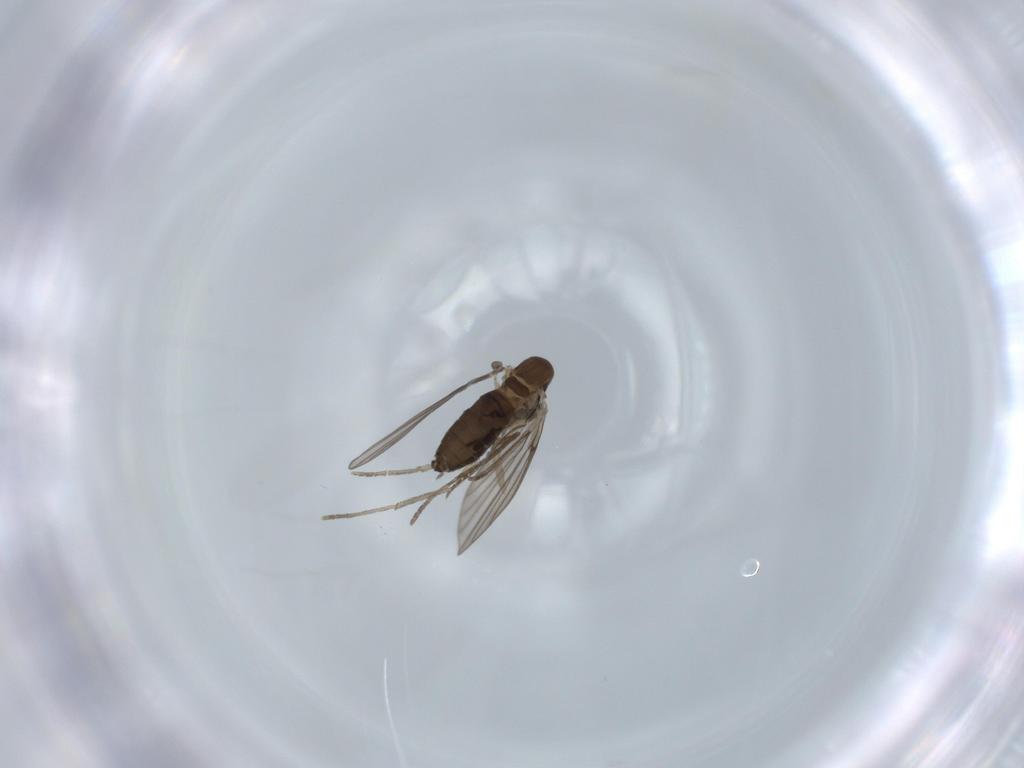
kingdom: Animalia
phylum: Arthropoda
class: Insecta
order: Diptera
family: Psychodidae
